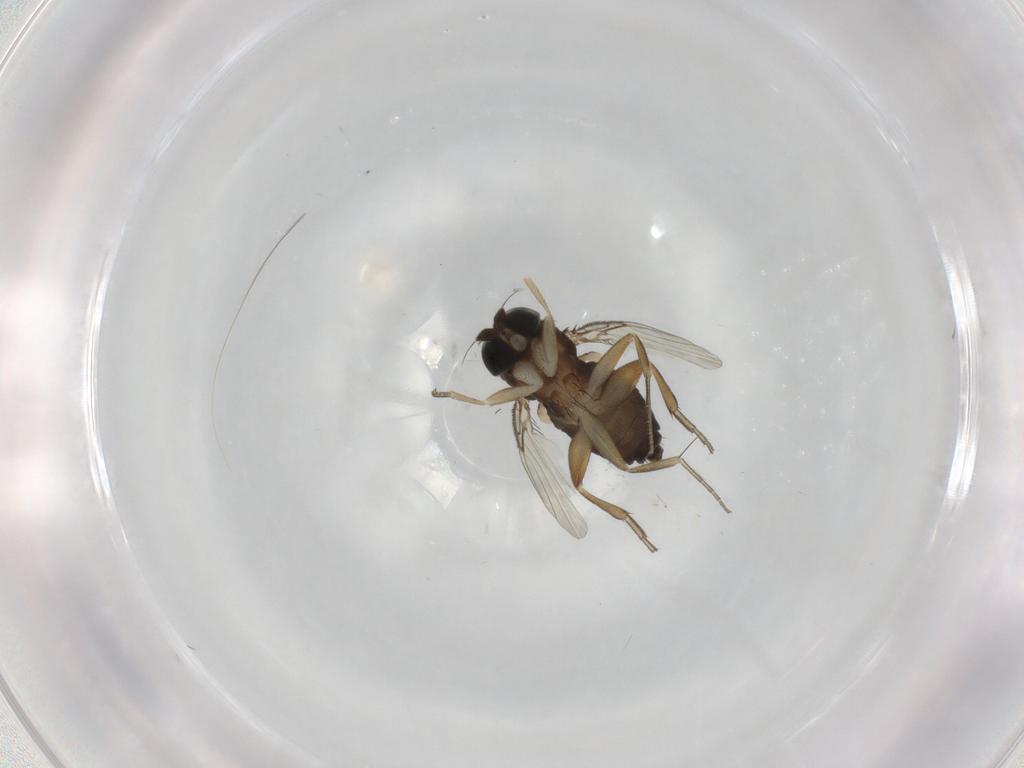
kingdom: Animalia
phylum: Arthropoda
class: Insecta
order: Diptera
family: Phoridae
